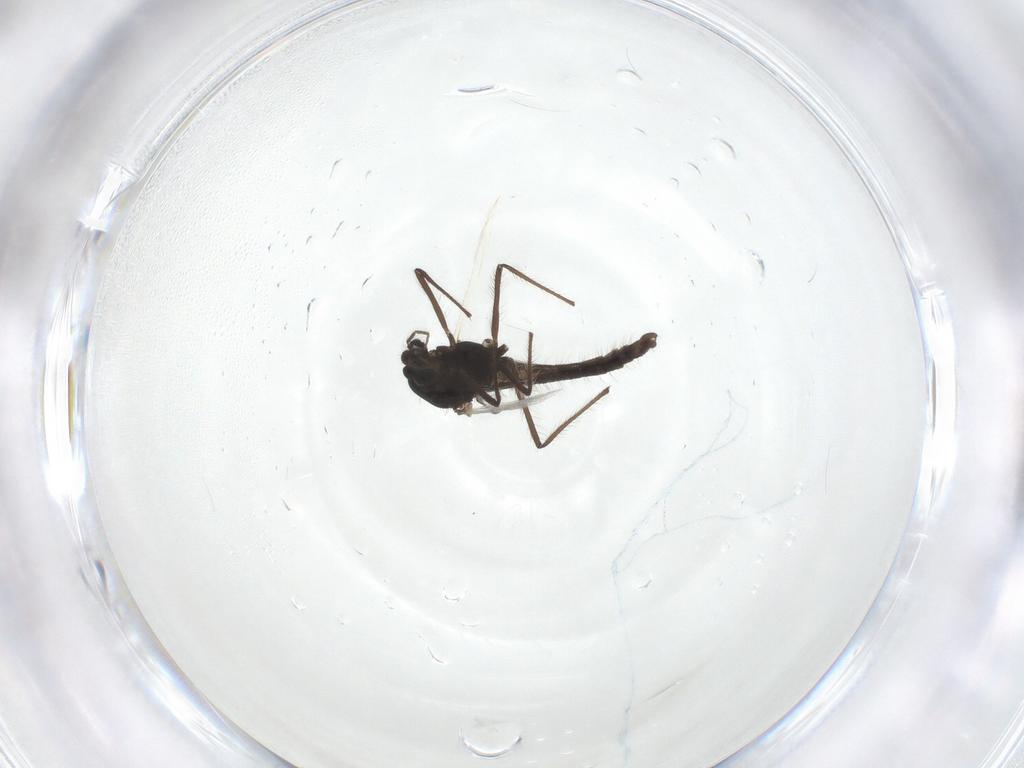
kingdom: Animalia
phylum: Arthropoda
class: Insecta
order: Diptera
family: Chironomidae
